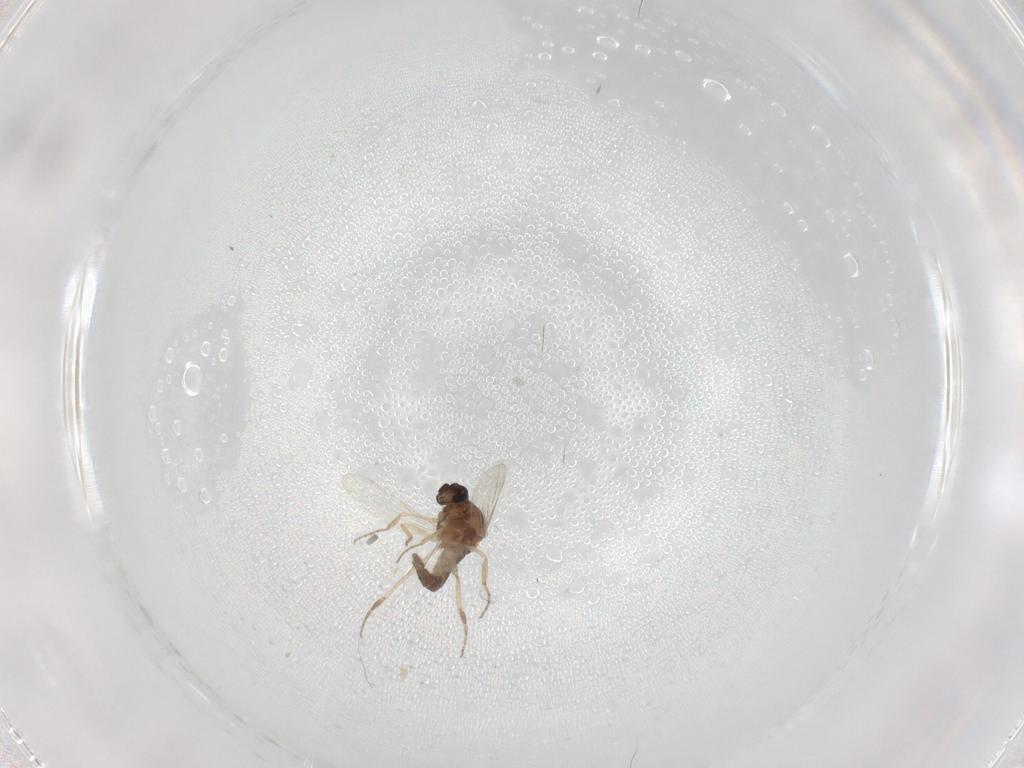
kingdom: Animalia
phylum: Arthropoda
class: Insecta
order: Diptera
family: Ceratopogonidae
